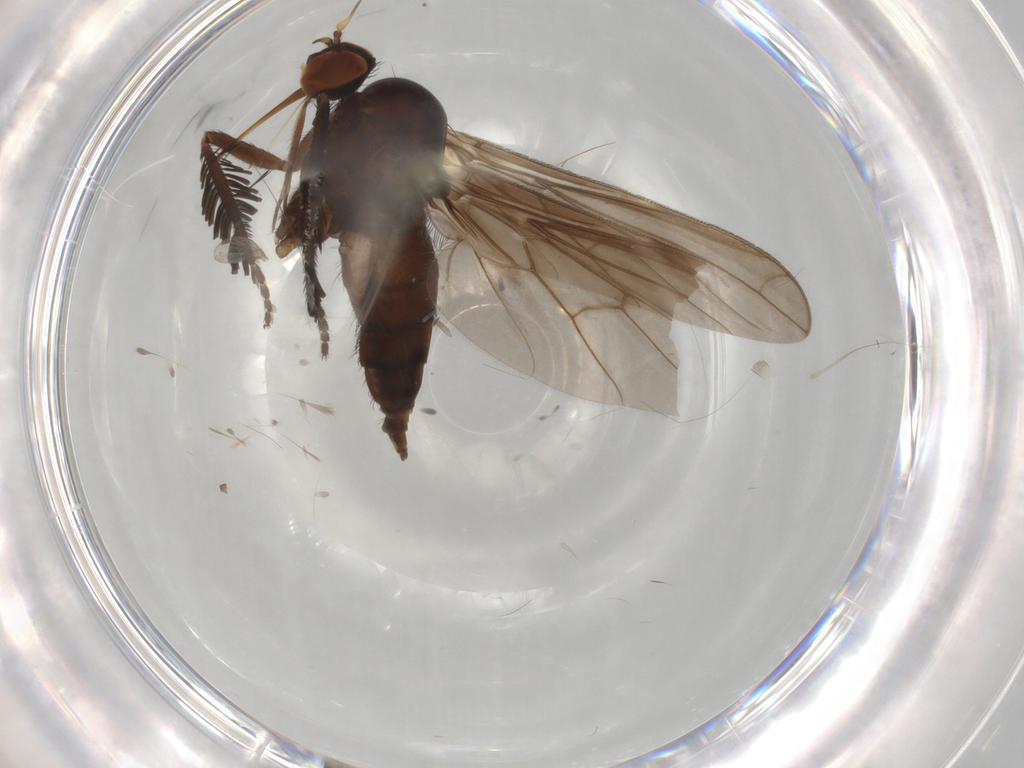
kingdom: Animalia
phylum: Arthropoda
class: Insecta
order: Diptera
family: Empididae
